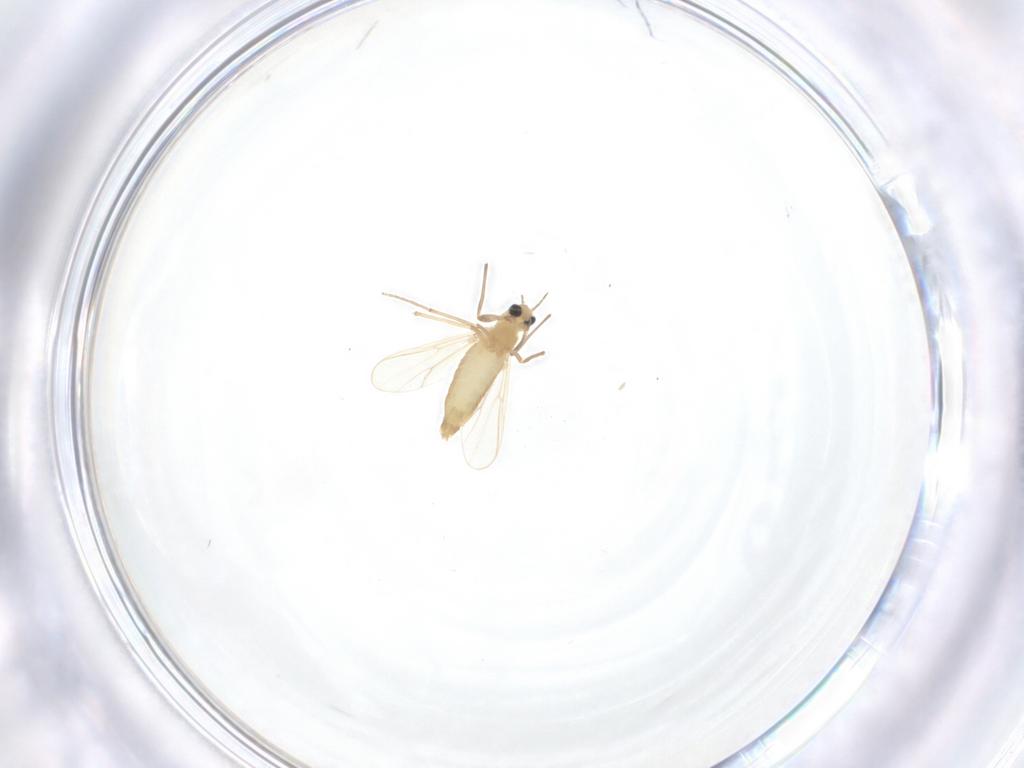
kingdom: Animalia
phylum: Arthropoda
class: Insecta
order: Diptera
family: Chironomidae
